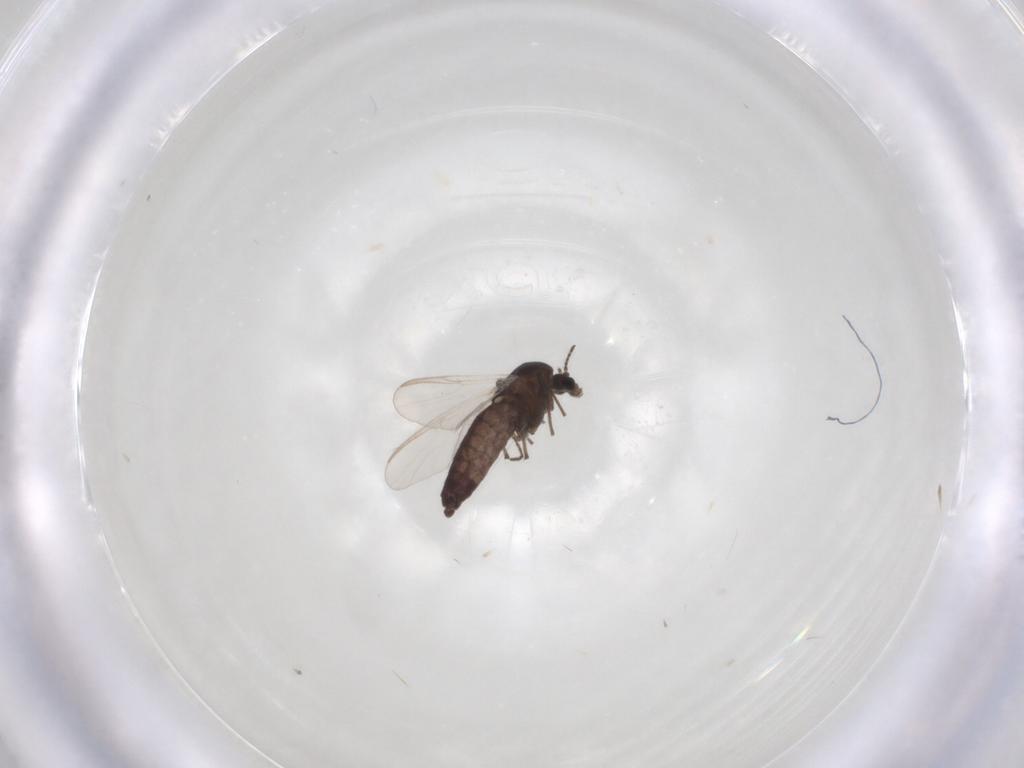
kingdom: Animalia
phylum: Arthropoda
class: Insecta
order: Diptera
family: Chironomidae
